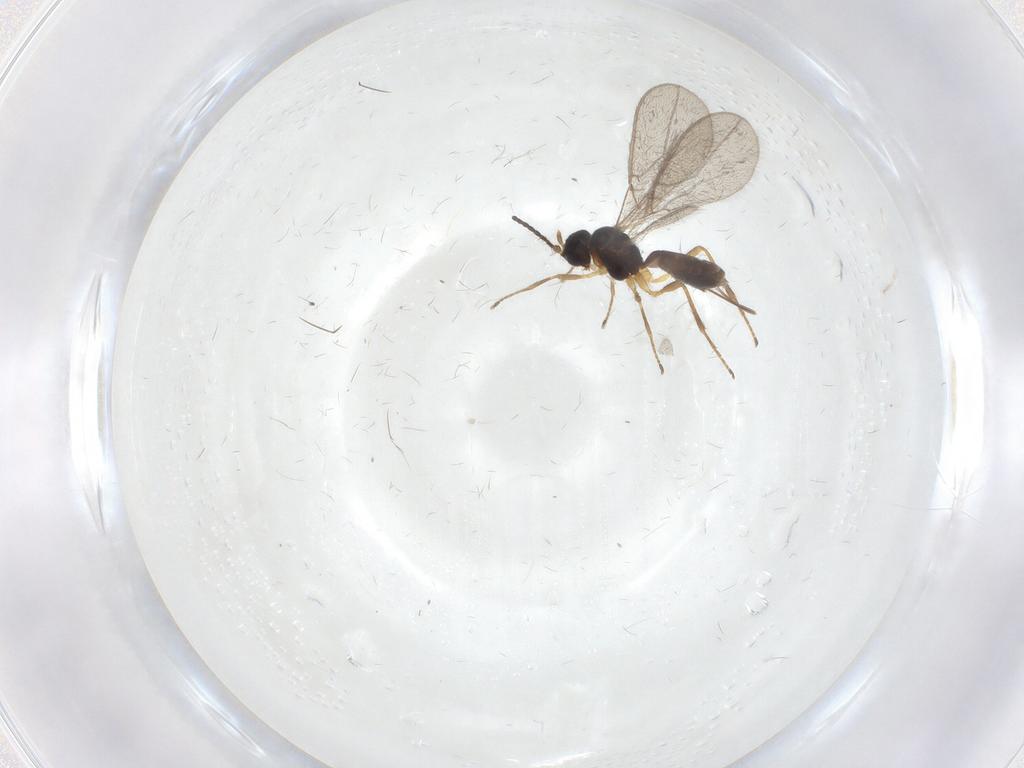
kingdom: Animalia
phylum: Arthropoda
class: Insecta
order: Hymenoptera
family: Braconidae
